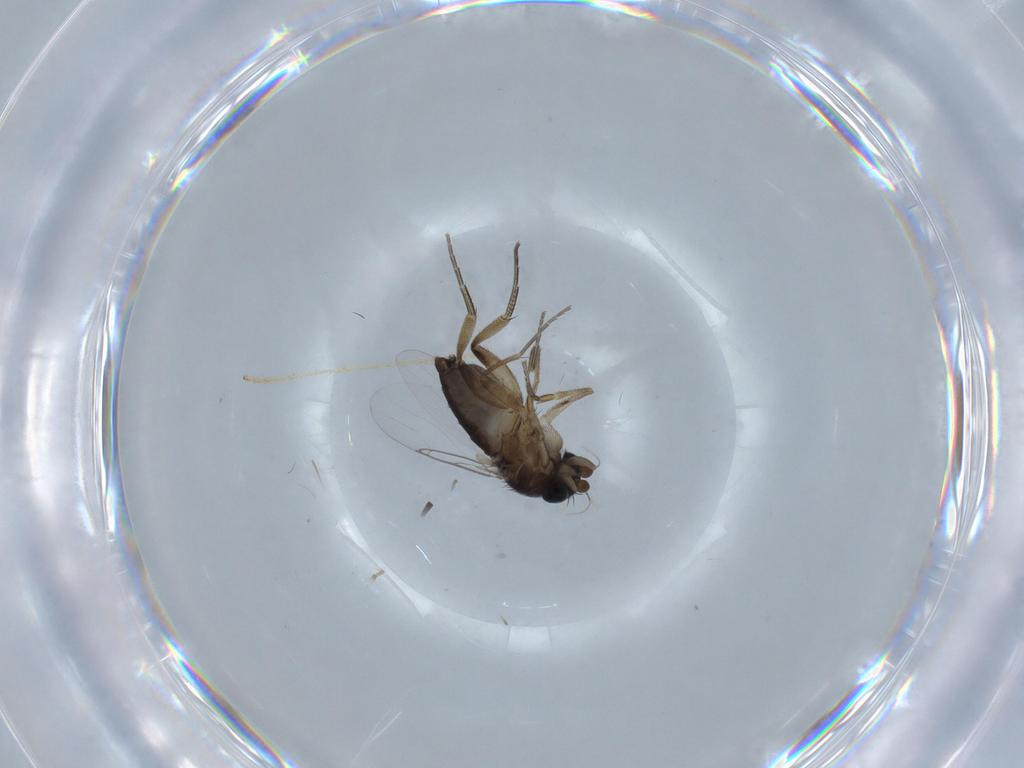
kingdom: Animalia
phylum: Arthropoda
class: Insecta
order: Diptera
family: Phoridae
